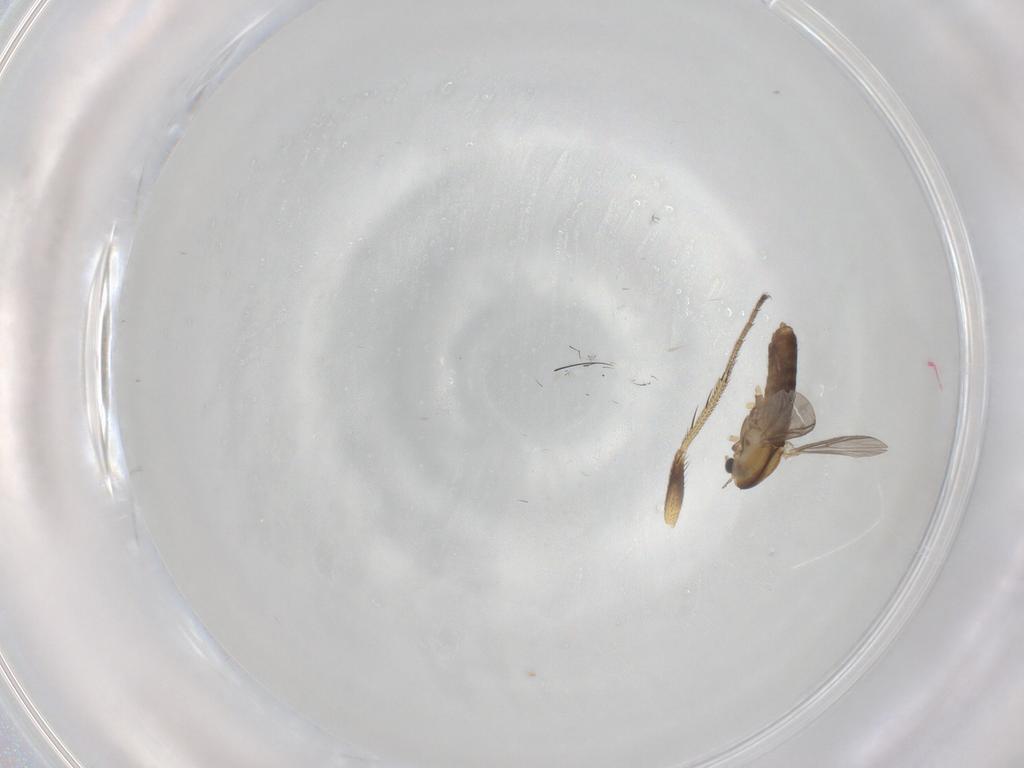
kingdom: Animalia
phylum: Arthropoda
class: Insecta
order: Diptera
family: Chironomidae
